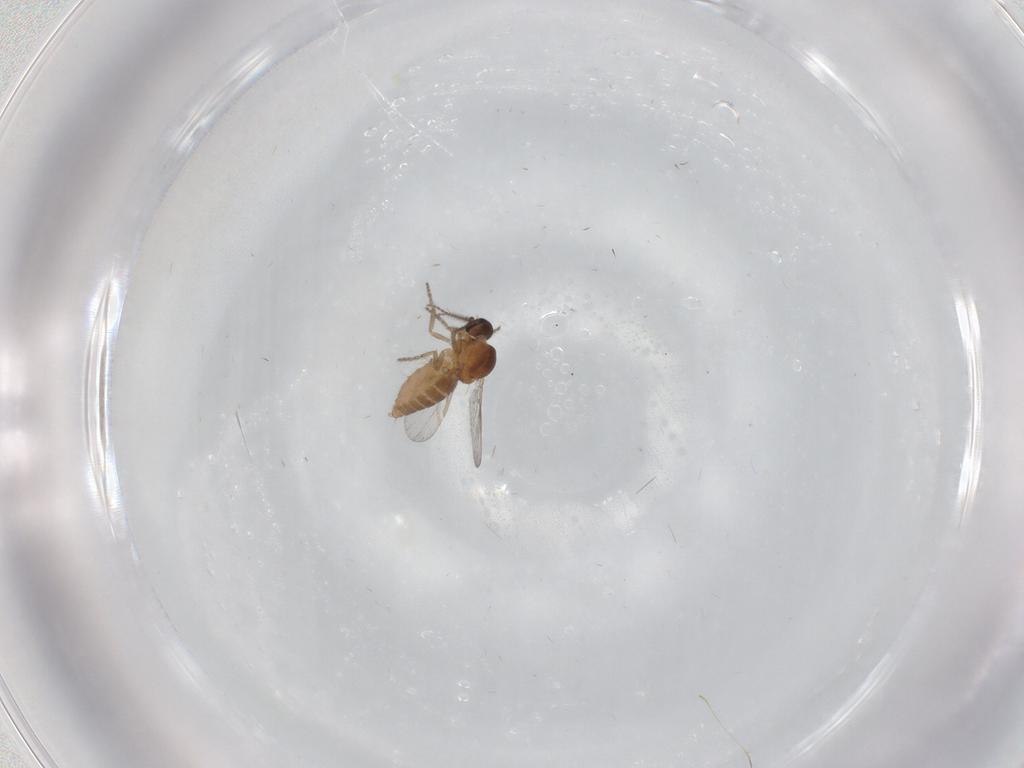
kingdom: Animalia
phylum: Arthropoda
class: Insecta
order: Diptera
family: Ceratopogonidae
